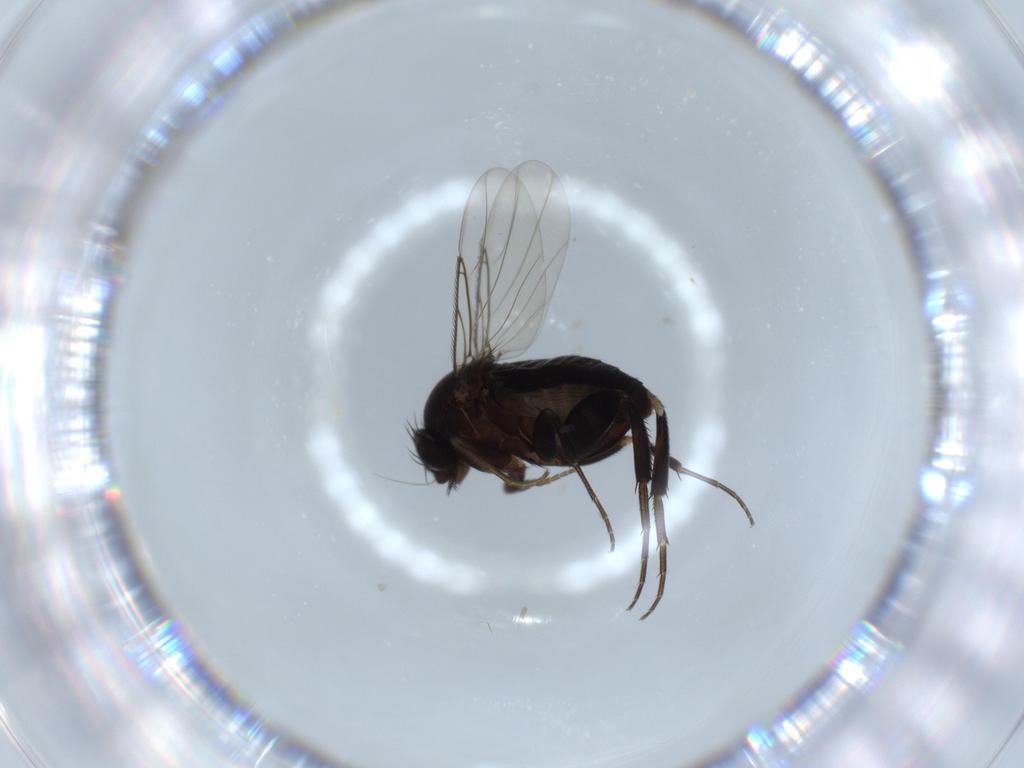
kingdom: Animalia
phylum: Arthropoda
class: Insecta
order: Diptera
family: Phoridae
